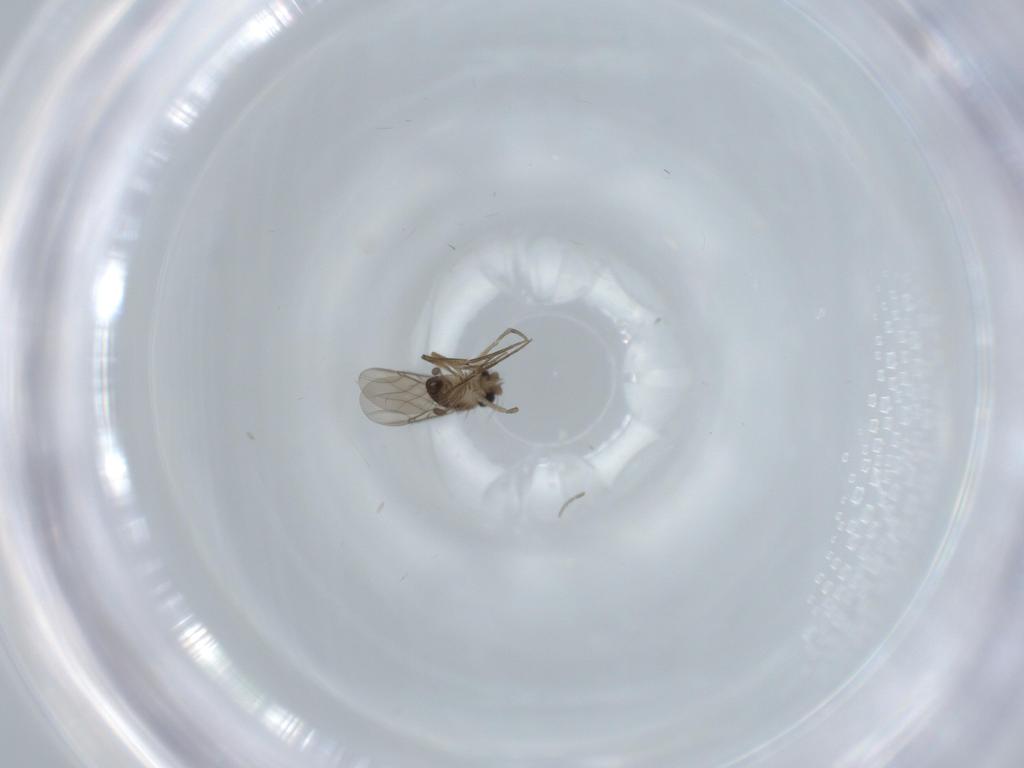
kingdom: Animalia
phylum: Arthropoda
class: Insecta
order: Diptera
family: Phoridae
